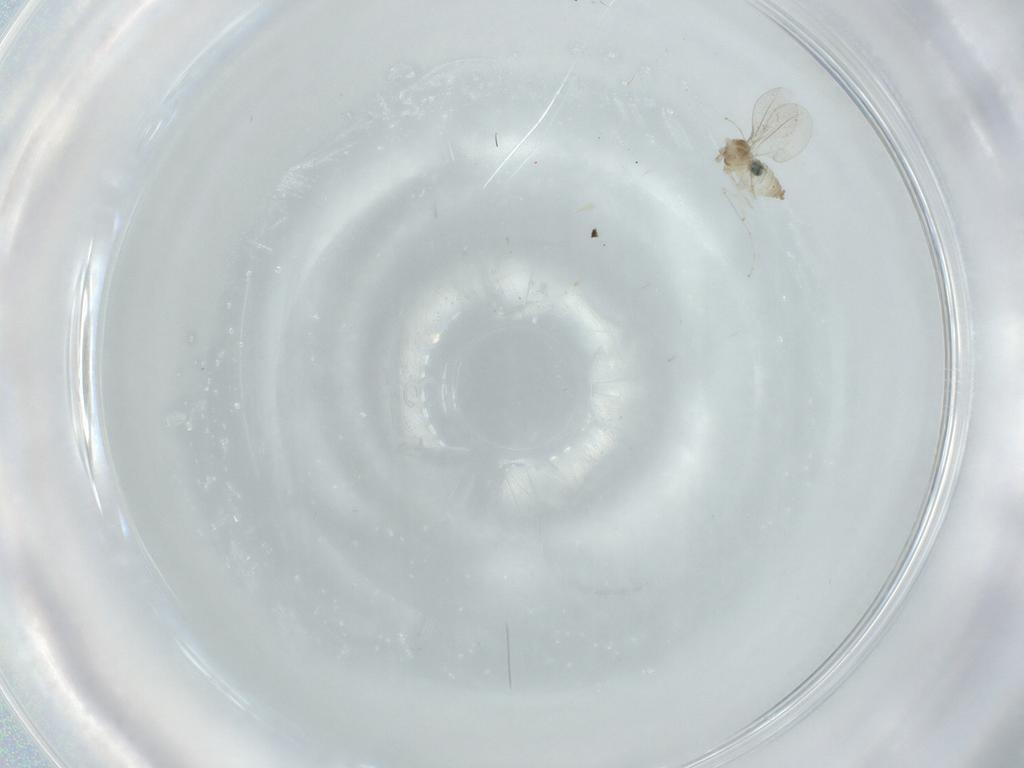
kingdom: Animalia
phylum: Arthropoda
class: Insecta
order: Diptera
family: Cecidomyiidae
